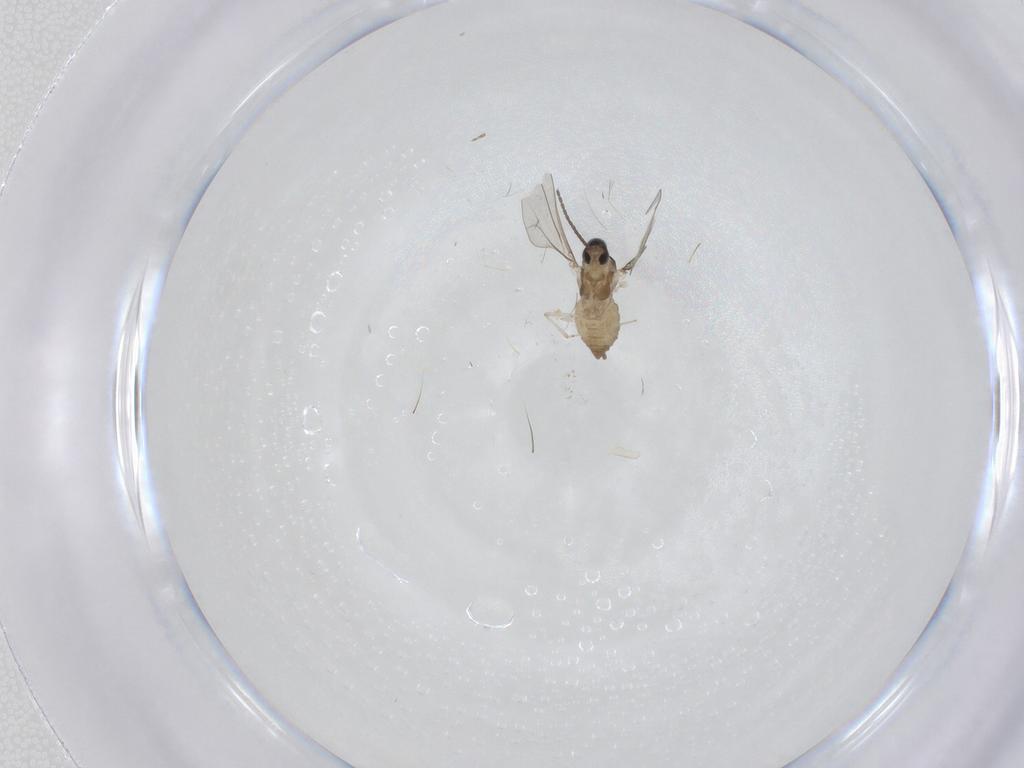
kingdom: Animalia
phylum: Arthropoda
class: Insecta
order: Diptera
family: Cecidomyiidae
